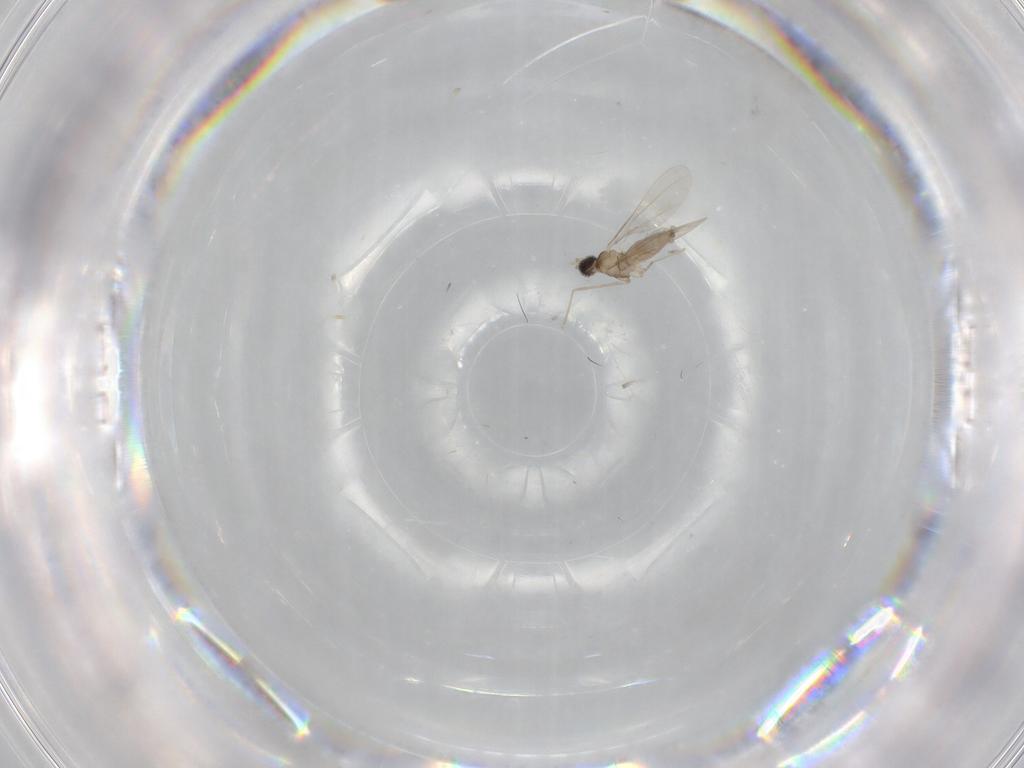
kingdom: Animalia
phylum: Arthropoda
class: Insecta
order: Diptera
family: Cecidomyiidae
